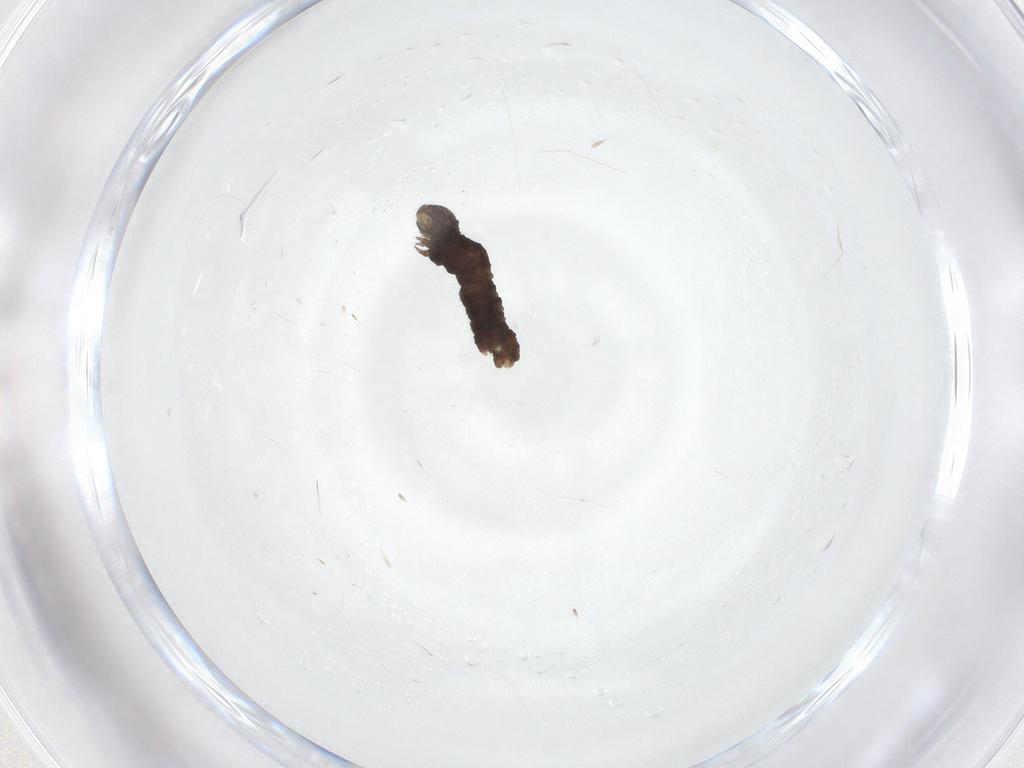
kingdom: Animalia
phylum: Arthropoda
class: Insecta
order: Lepidoptera
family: Geometridae
